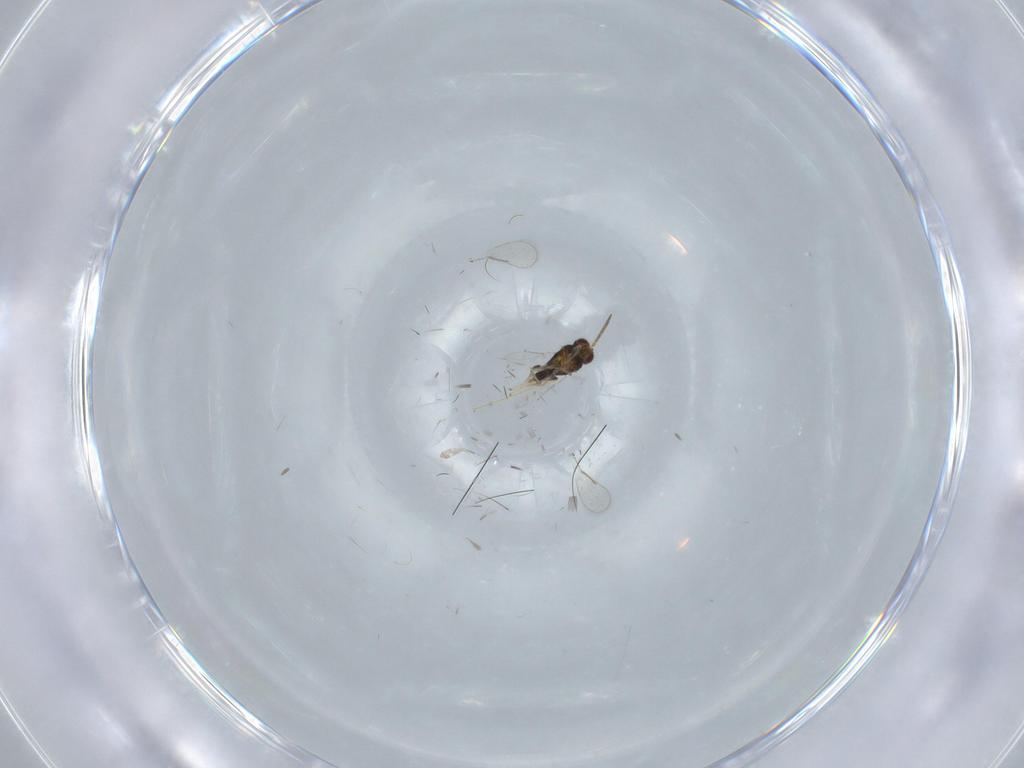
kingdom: Animalia
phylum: Arthropoda
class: Insecta
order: Hymenoptera
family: Aphelinidae
